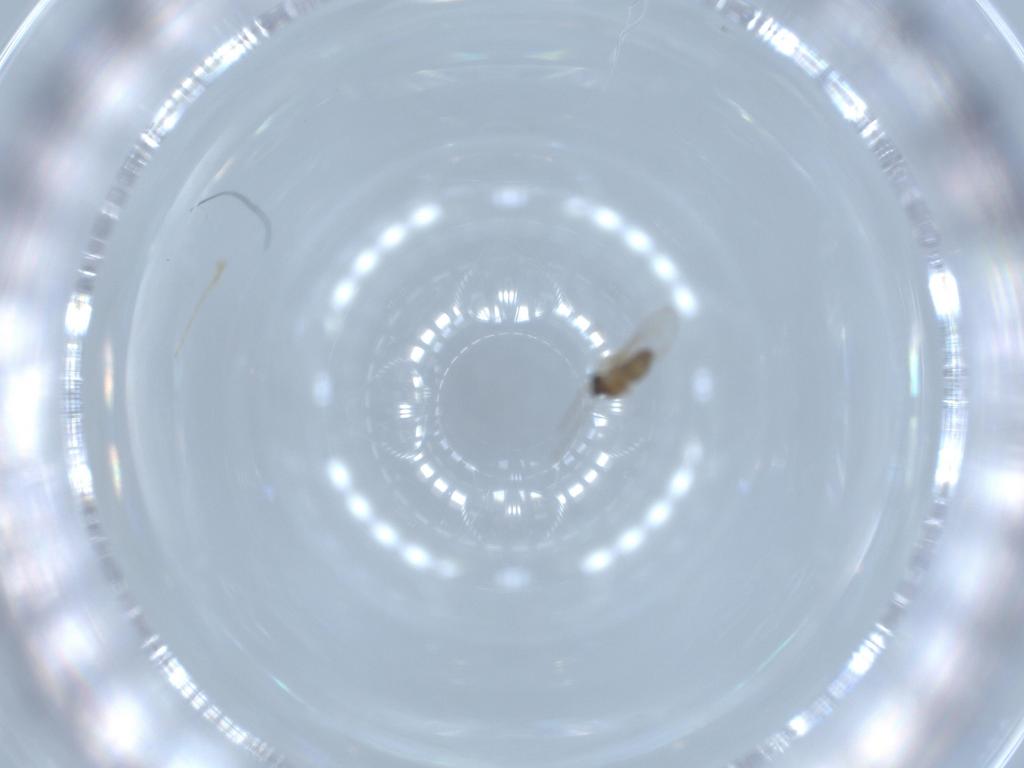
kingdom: Animalia
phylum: Arthropoda
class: Insecta
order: Diptera
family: Cecidomyiidae
